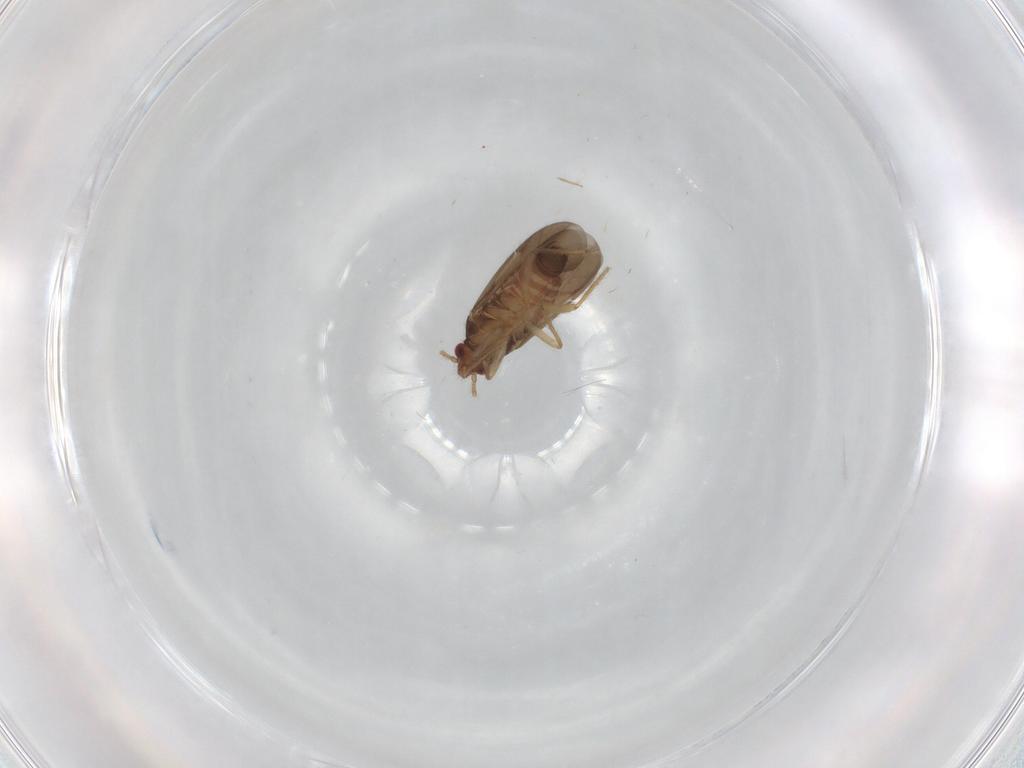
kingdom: Animalia
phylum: Arthropoda
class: Insecta
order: Hemiptera
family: Ceratocombidae
